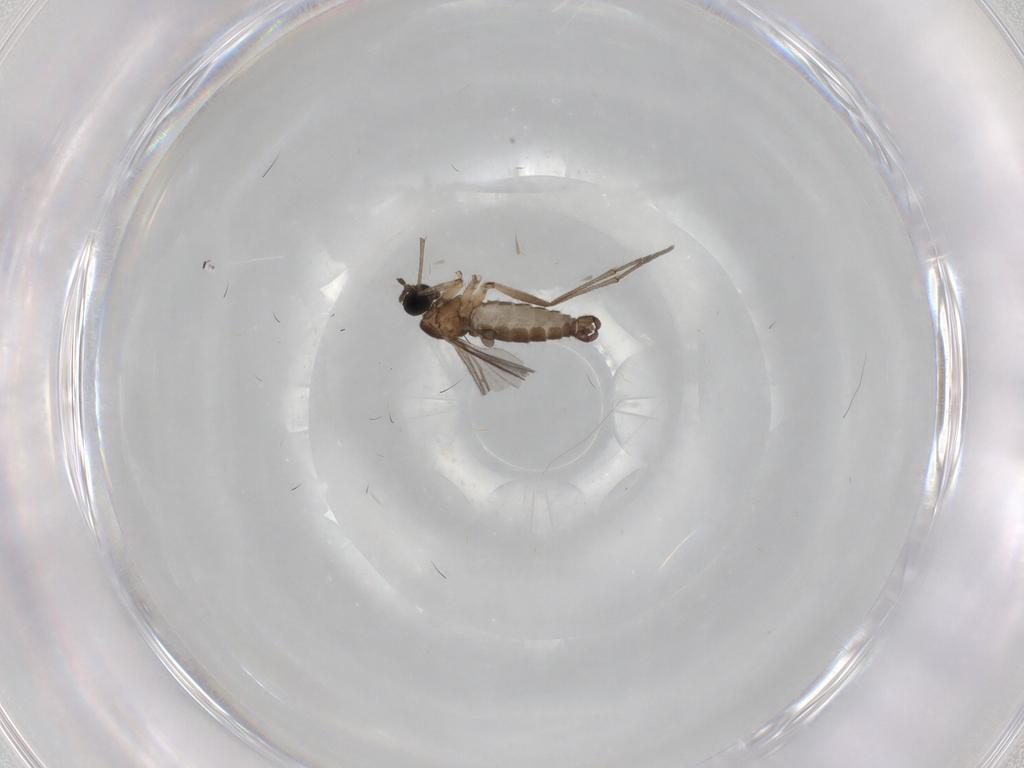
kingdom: Animalia
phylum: Arthropoda
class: Insecta
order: Diptera
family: Sciaridae
